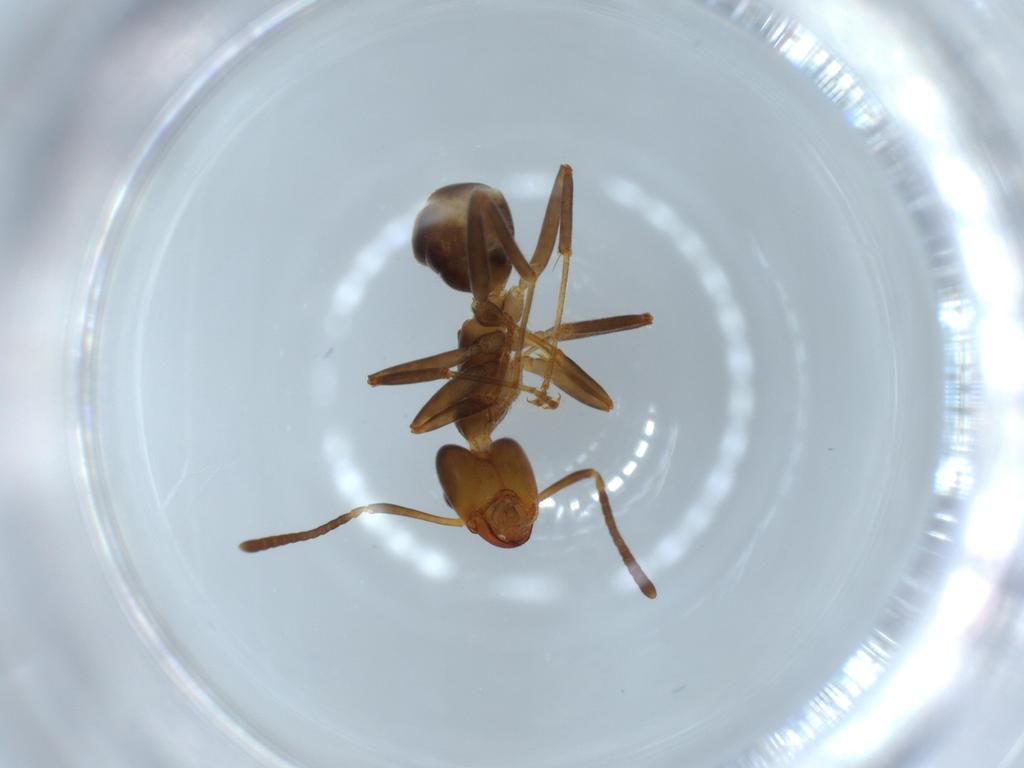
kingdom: Animalia
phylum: Arthropoda
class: Insecta
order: Hymenoptera
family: Formicidae
